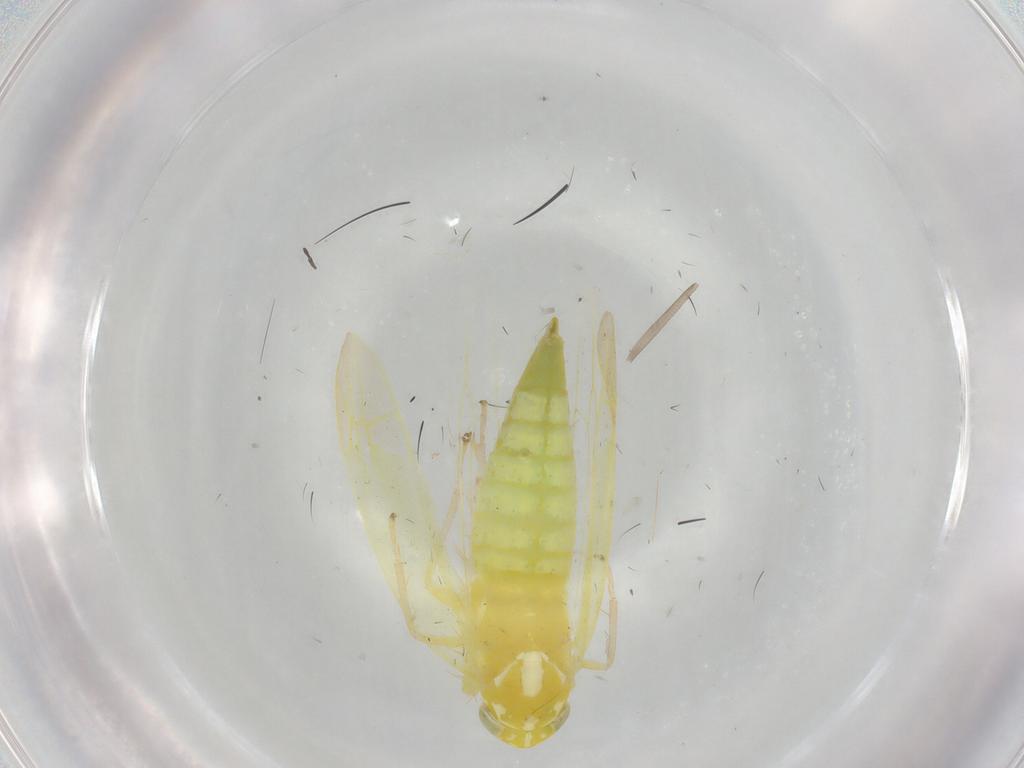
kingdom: Animalia
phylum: Arthropoda
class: Insecta
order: Hemiptera
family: Cicadellidae
